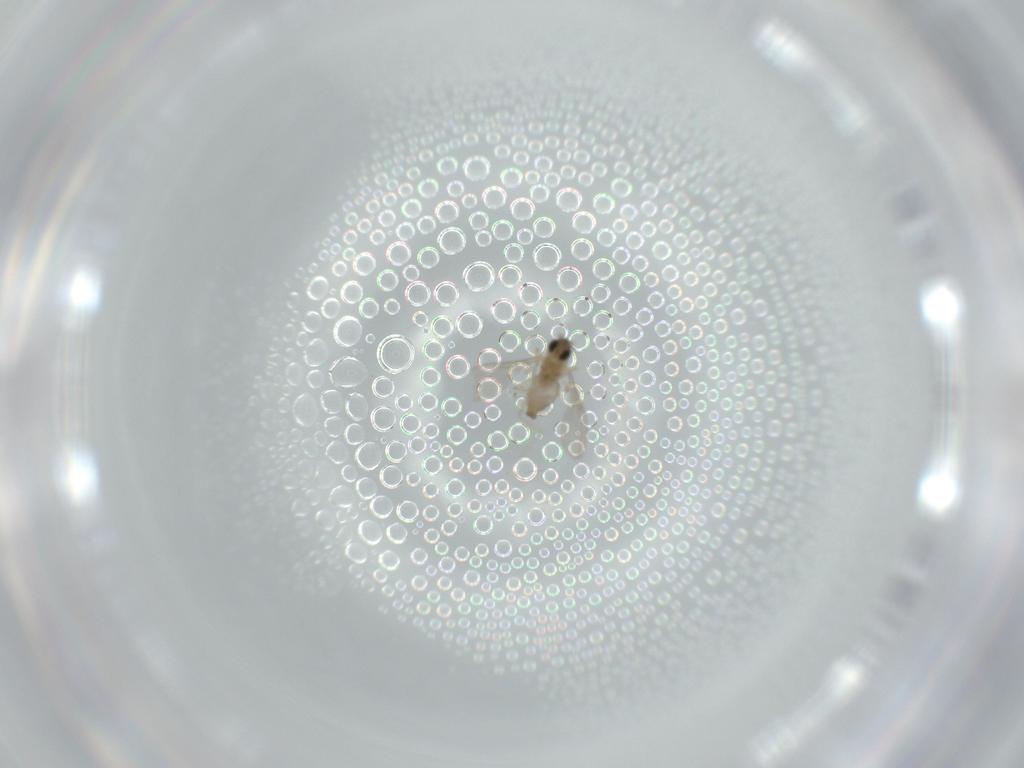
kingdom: Animalia
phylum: Arthropoda
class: Insecta
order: Diptera
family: Cecidomyiidae
